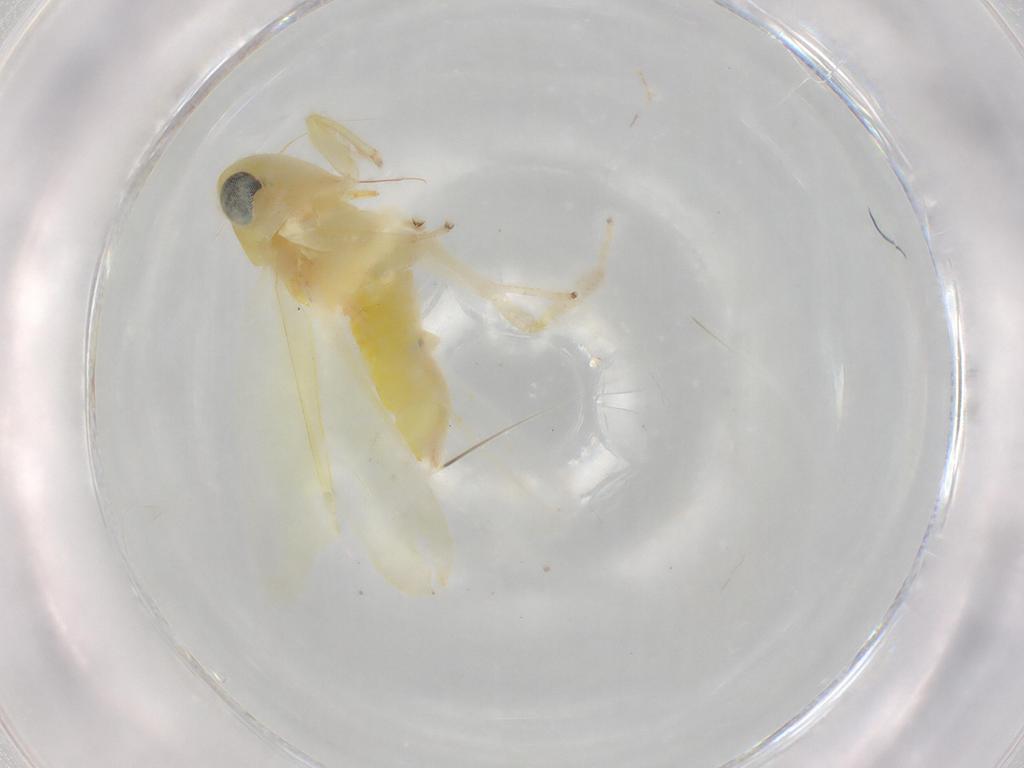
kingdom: Animalia
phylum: Arthropoda
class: Insecta
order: Hemiptera
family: Cicadellidae
